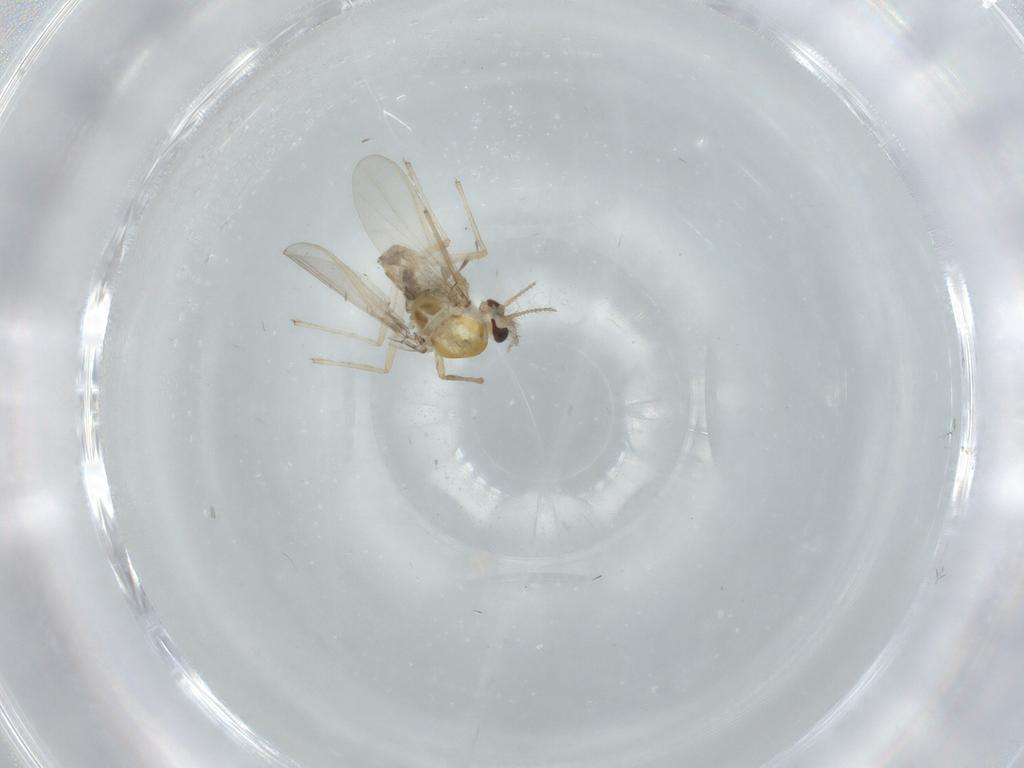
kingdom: Animalia
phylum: Arthropoda
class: Insecta
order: Diptera
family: Chironomidae
